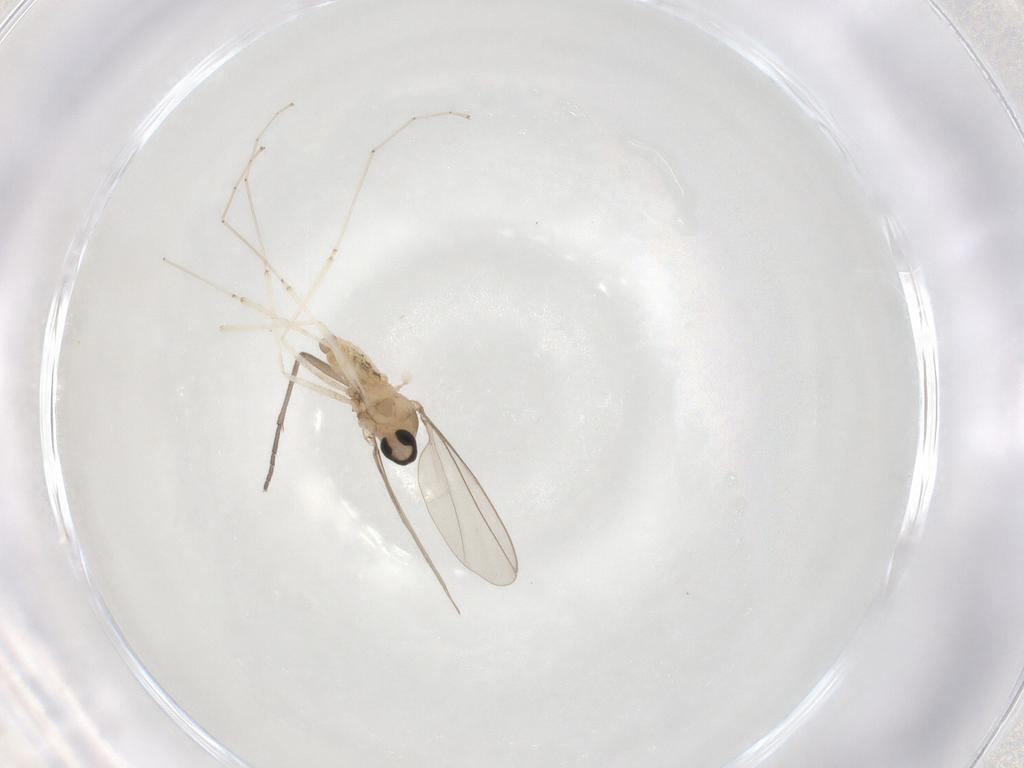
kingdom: Animalia
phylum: Arthropoda
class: Insecta
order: Diptera
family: Cecidomyiidae
